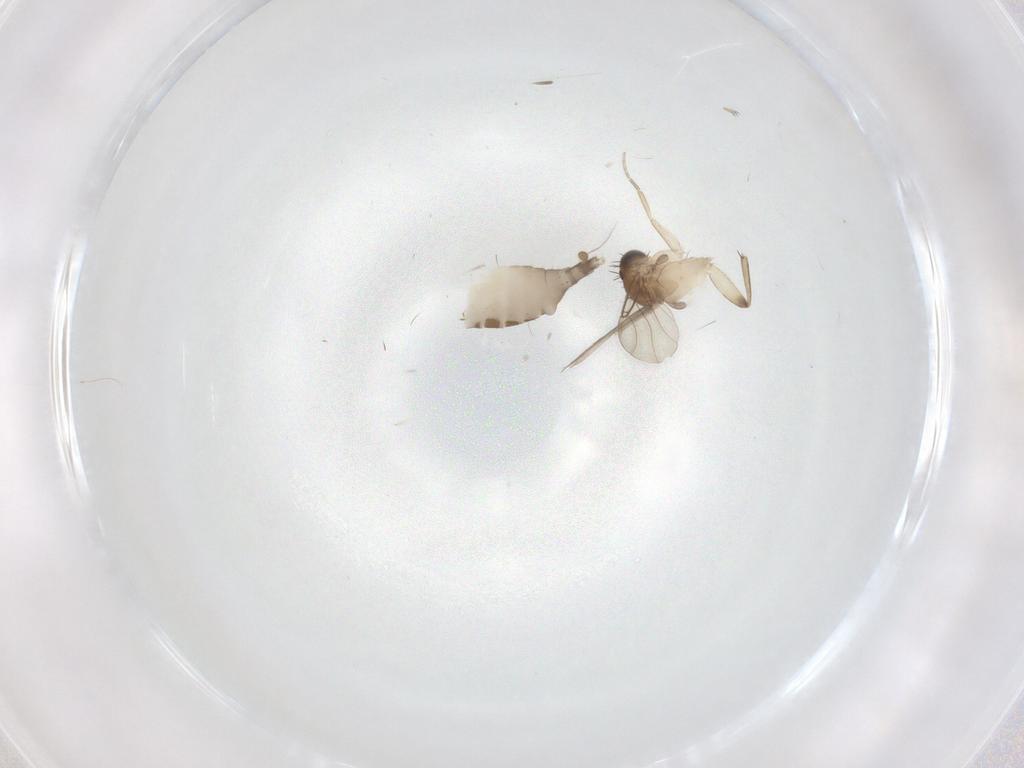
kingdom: Animalia
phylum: Arthropoda
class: Insecta
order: Diptera
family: Phoridae
